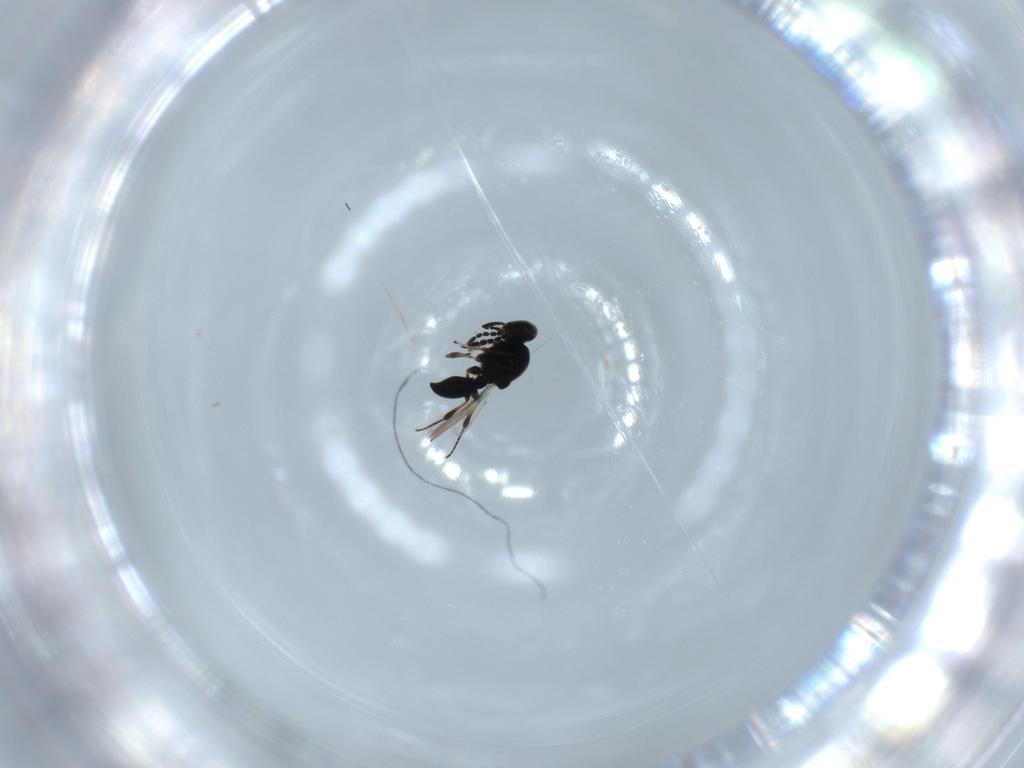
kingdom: Animalia
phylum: Arthropoda
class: Insecta
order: Hymenoptera
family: Platygastridae
